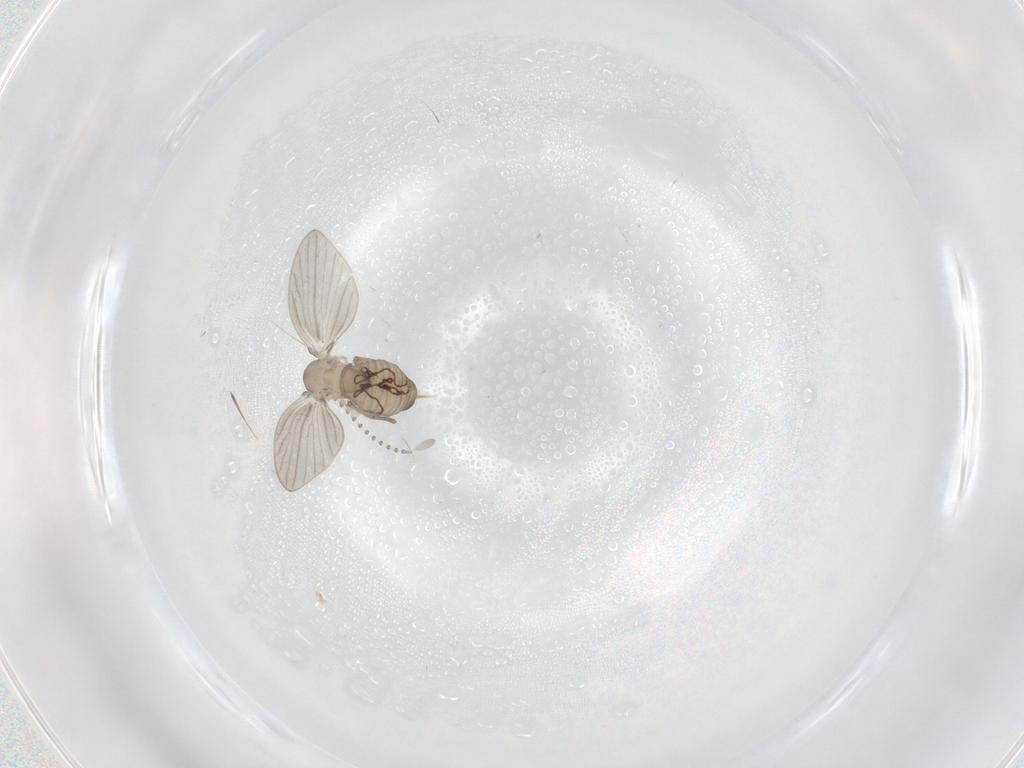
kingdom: Animalia
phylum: Arthropoda
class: Insecta
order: Diptera
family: Psychodidae
